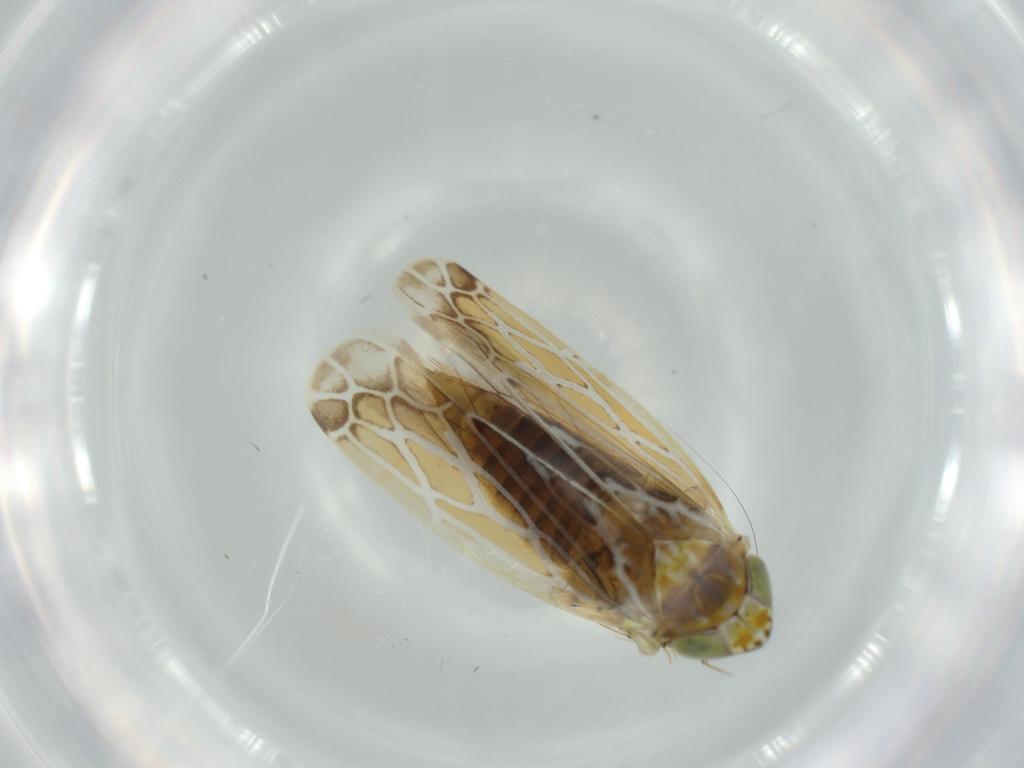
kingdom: Animalia
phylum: Arthropoda
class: Insecta
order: Hemiptera
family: Cicadellidae
